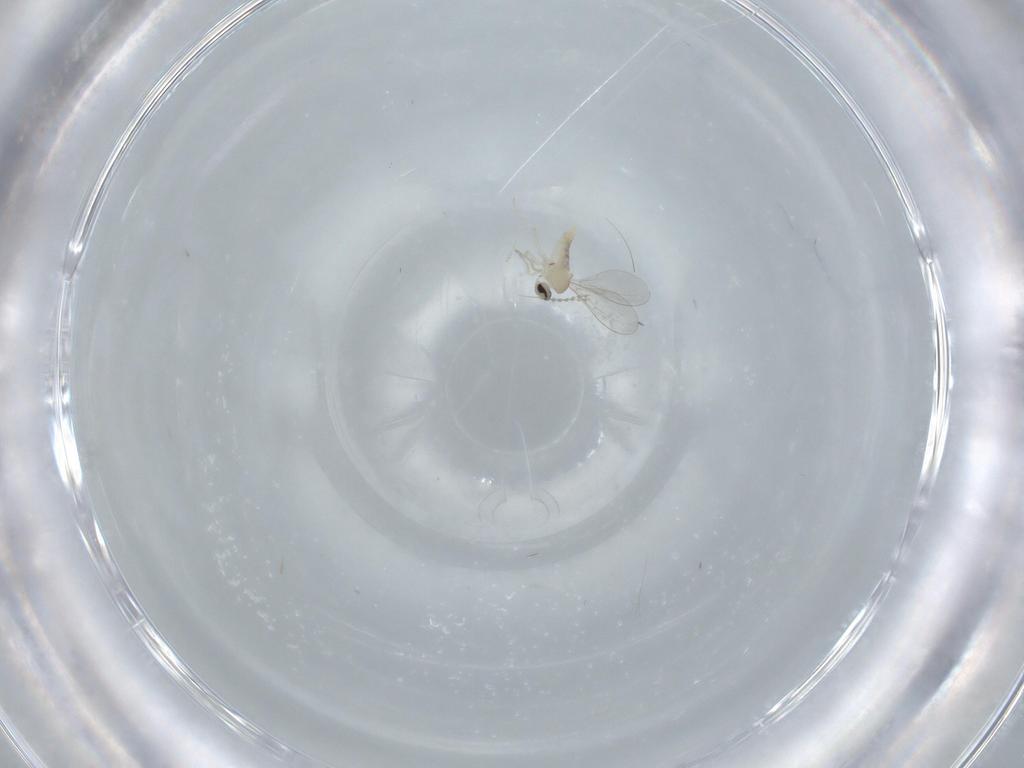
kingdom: Animalia
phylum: Arthropoda
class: Insecta
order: Diptera
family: Cecidomyiidae
